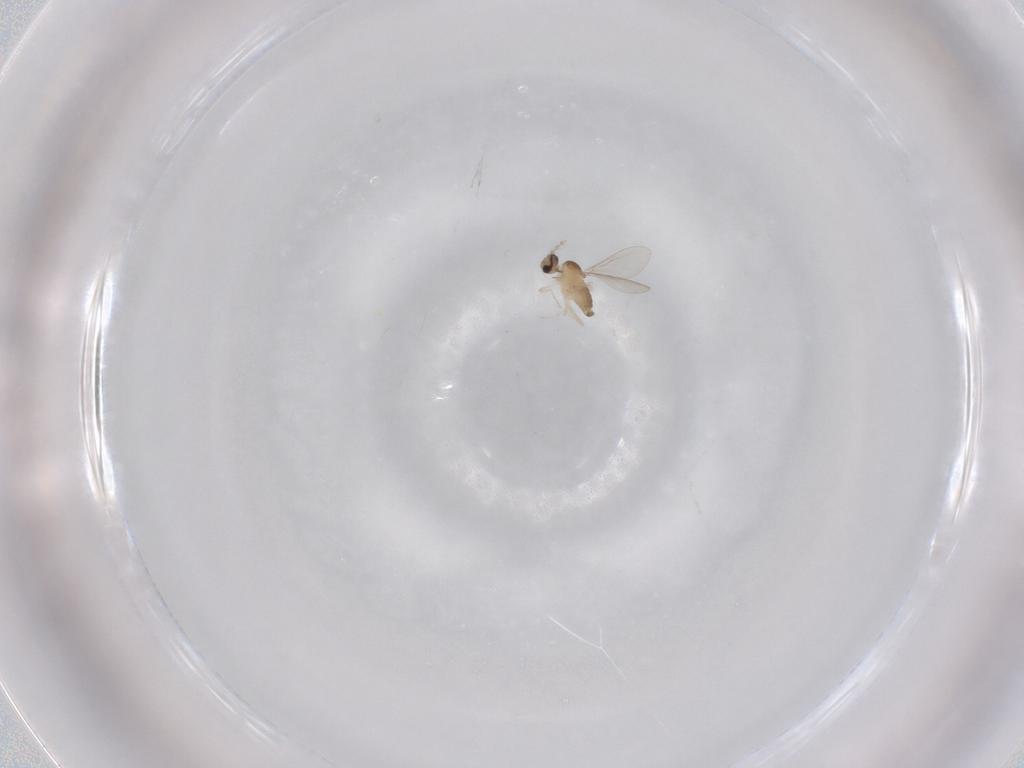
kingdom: Animalia
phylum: Arthropoda
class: Insecta
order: Diptera
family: Cecidomyiidae
